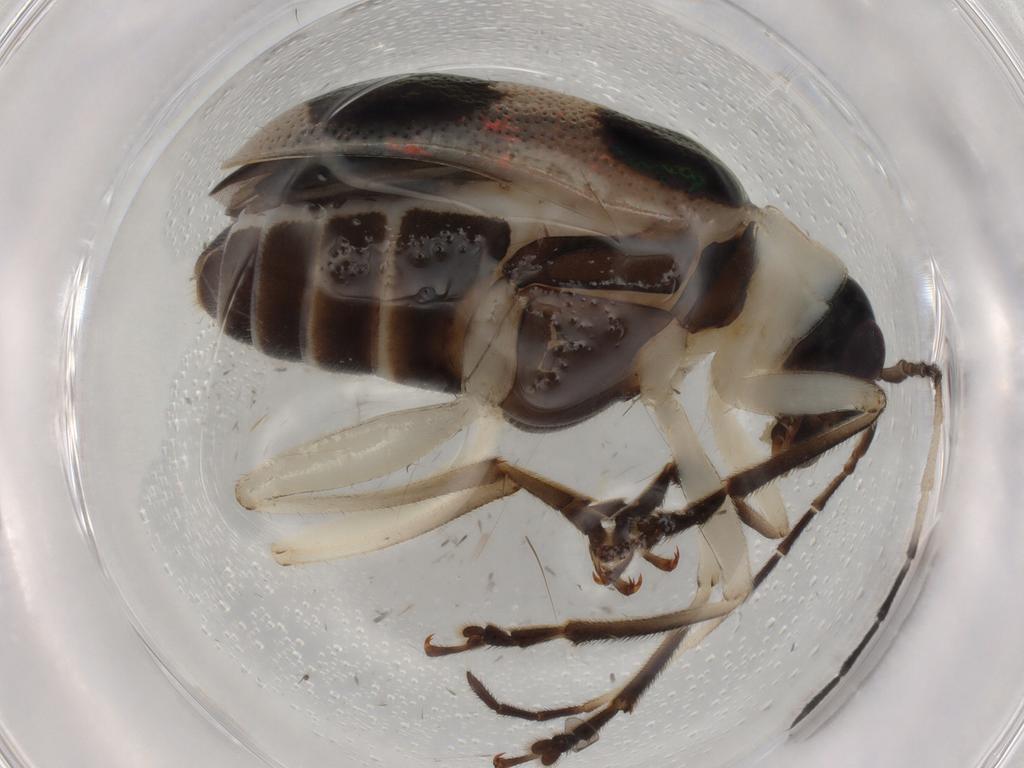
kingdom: Animalia
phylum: Arthropoda
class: Insecta
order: Coleoptera
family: Chrysomelidae
